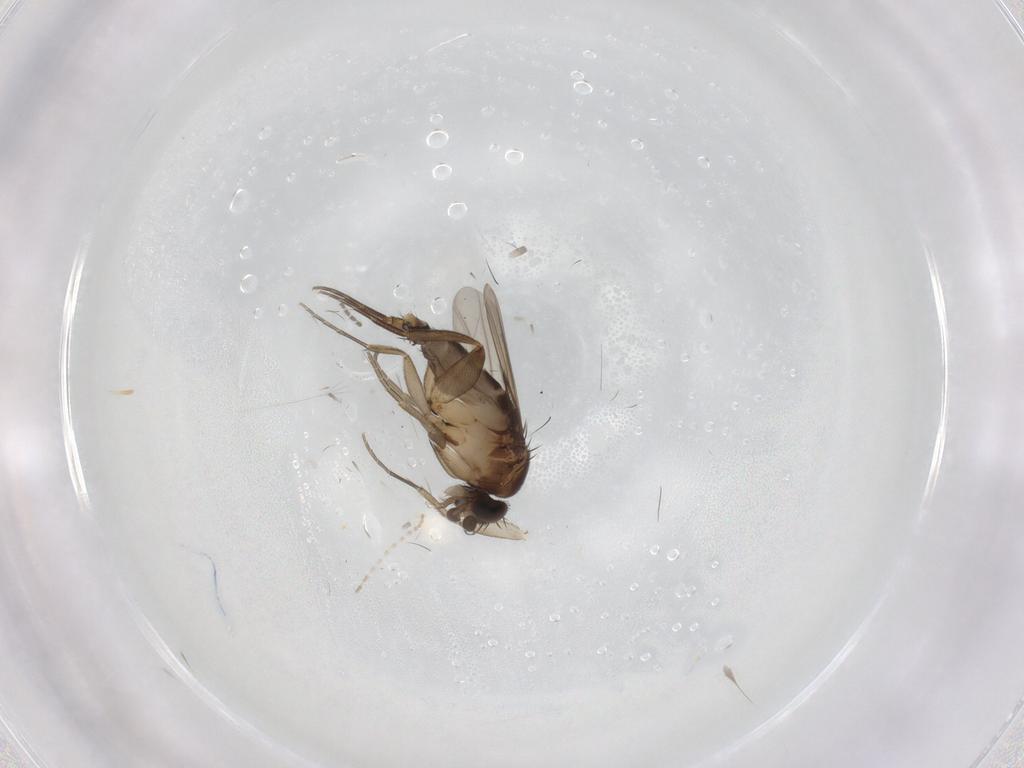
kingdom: Animalia
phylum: Arthropoda
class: Insecta
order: Diptera
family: Phoridae
